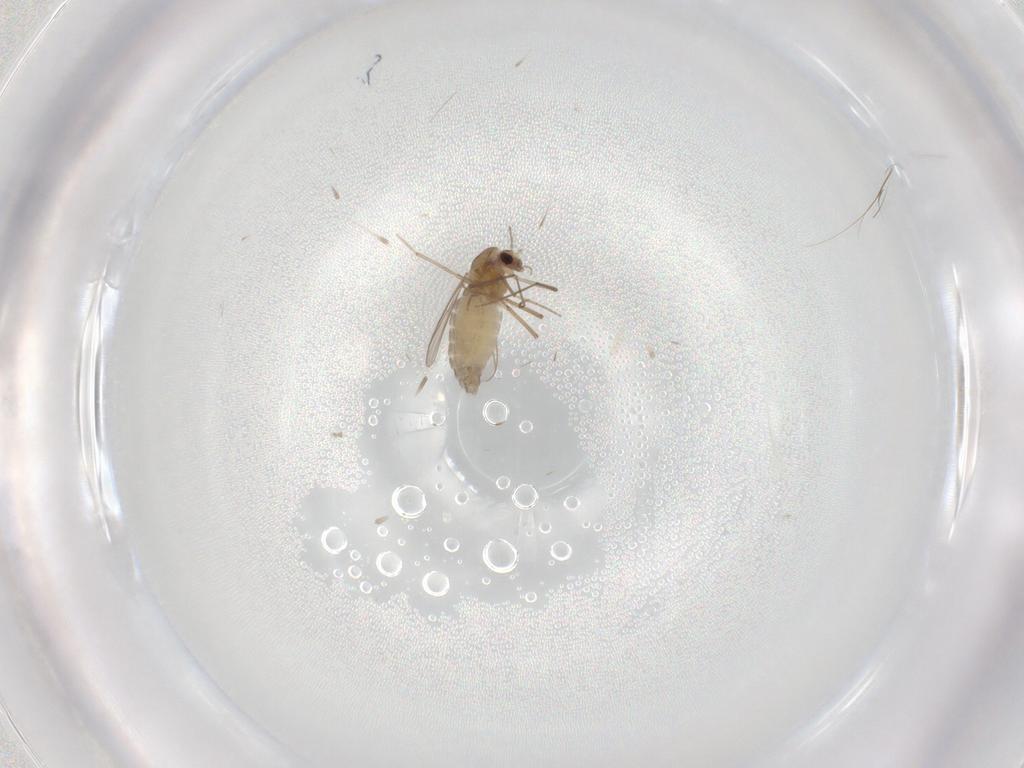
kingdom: Animalia
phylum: Arthropoda
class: Insecta
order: Diptera
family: Chironomidae
